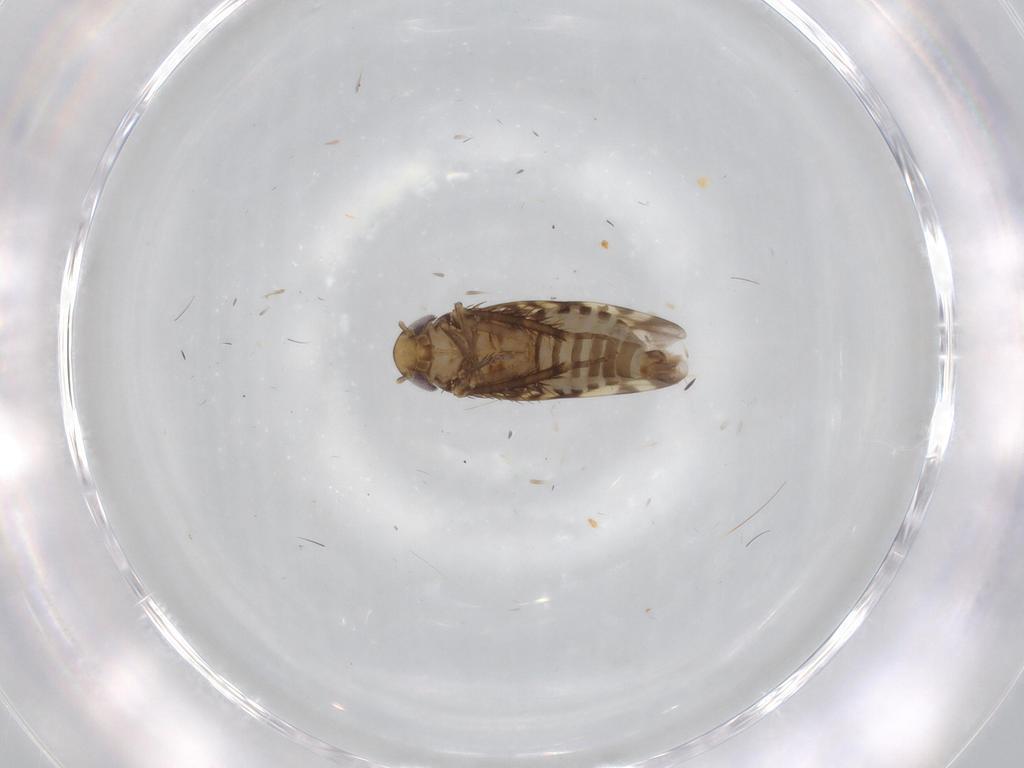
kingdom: Animalia
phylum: Arthropoda
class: Insecta
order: Hemiptera
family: Cicadellidae
